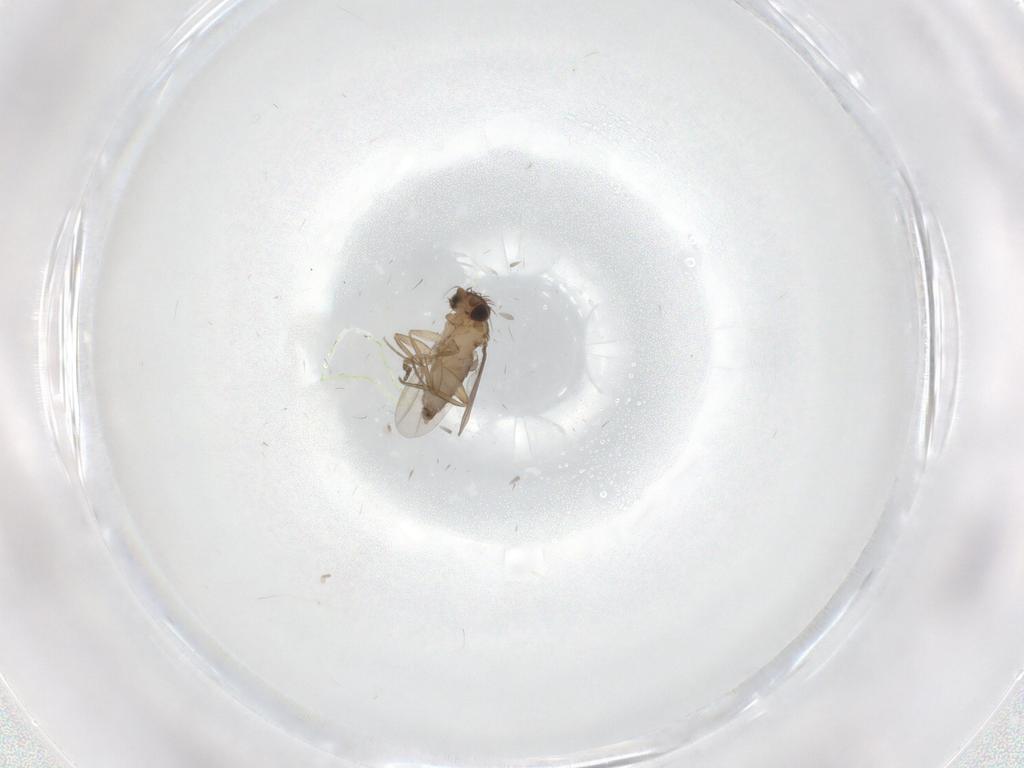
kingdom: Animalia
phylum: Arthropoda
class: Insecta
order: Diptera
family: Phoridae
